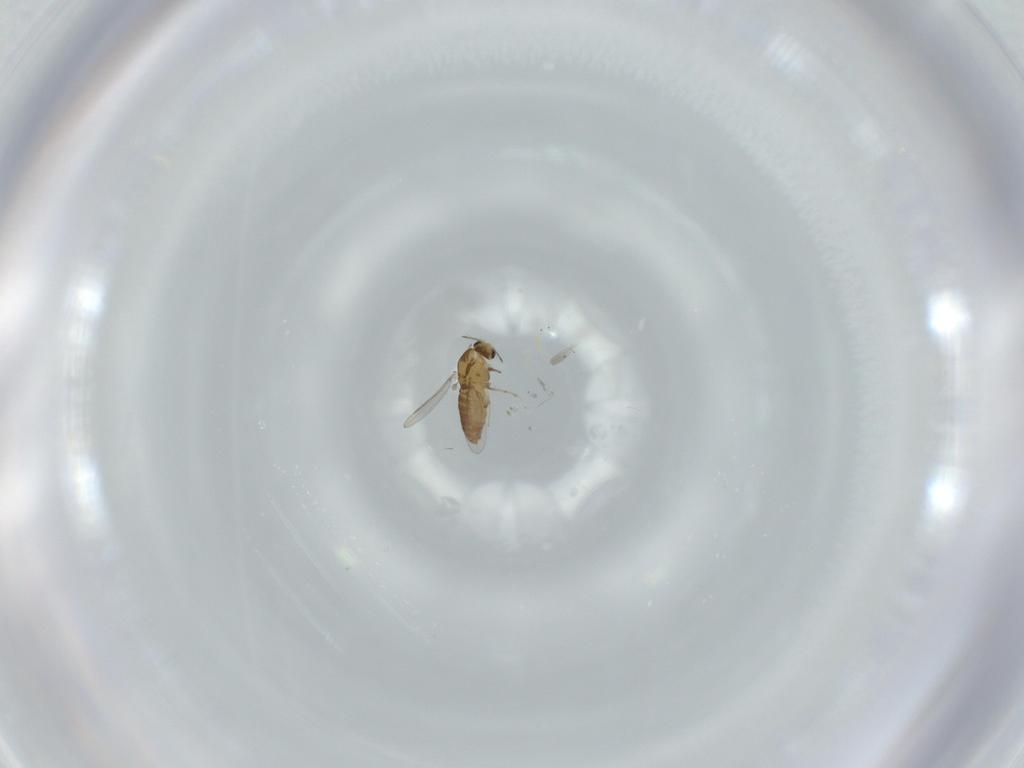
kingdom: Animalia
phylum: Arthropoda
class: Insecta
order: Diptera
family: Chironomidae
